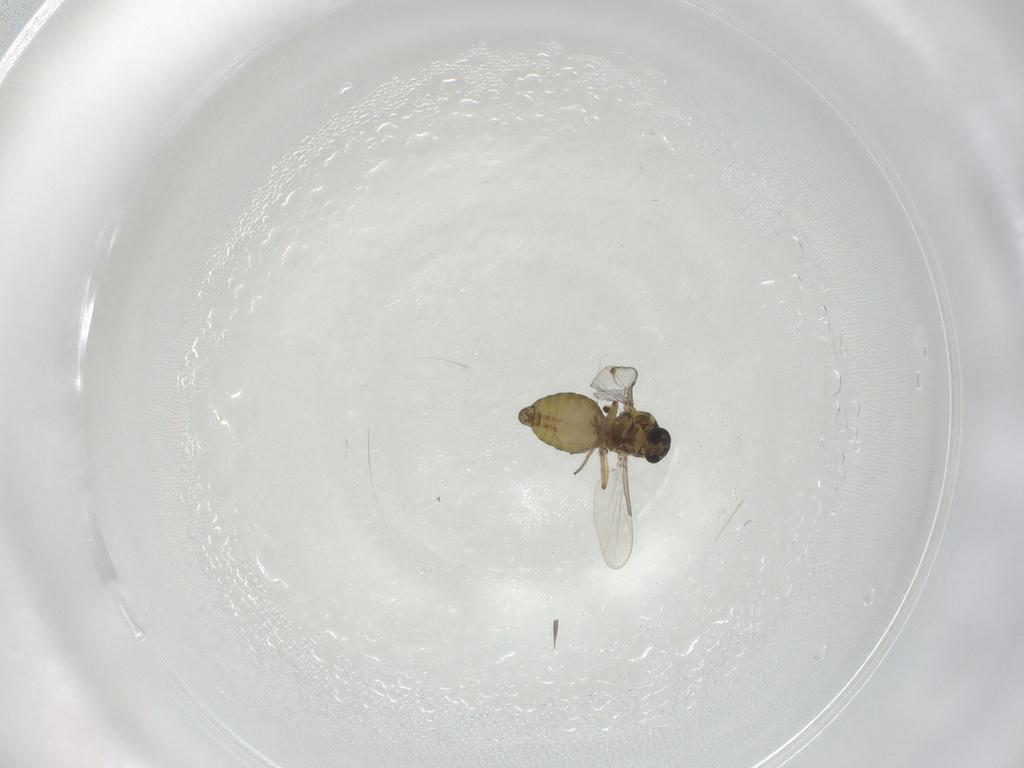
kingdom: Animalia
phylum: Arthropoda
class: Insecta
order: Diptera
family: Ceratopogonidae
